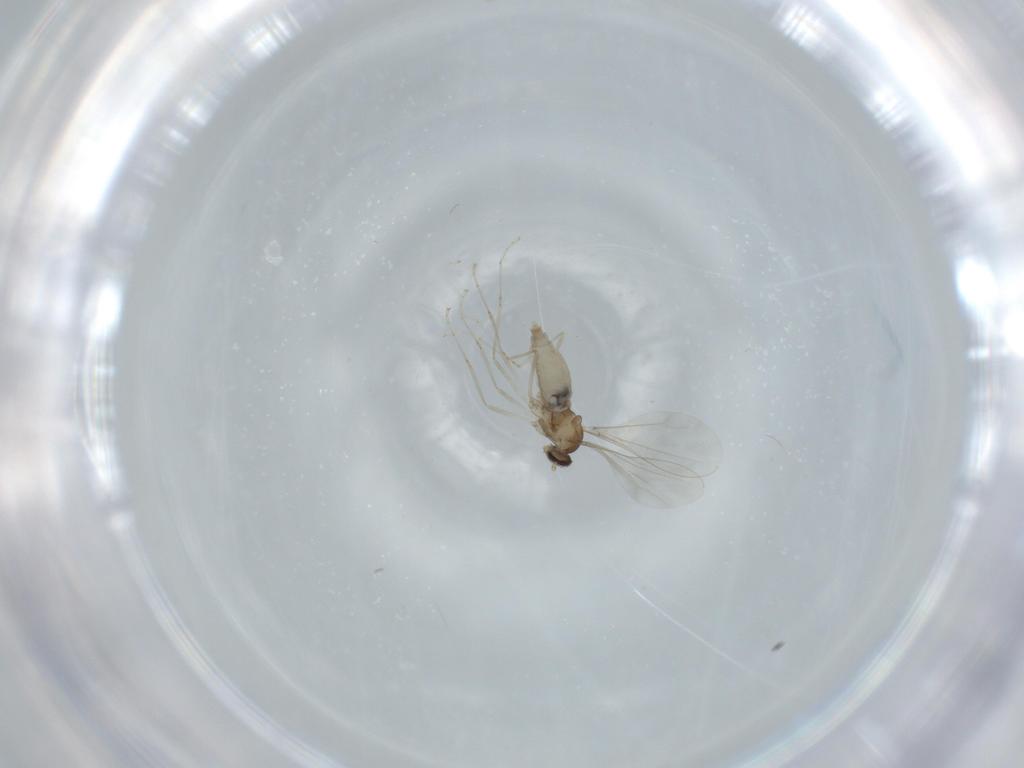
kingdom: Animalia
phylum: Arthropoda
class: Insecta
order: Diptera
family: Cecidomyiidae
